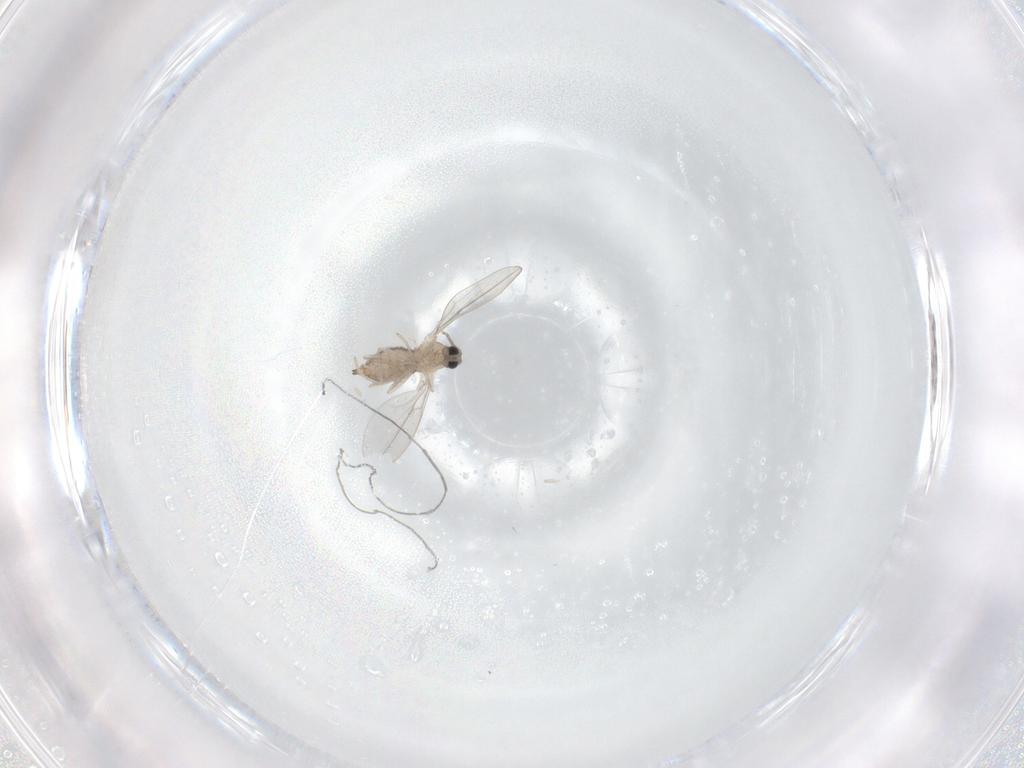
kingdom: Animalia
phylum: Arthropoda
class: Insecta
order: Diptera
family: Cecidomyiidae
